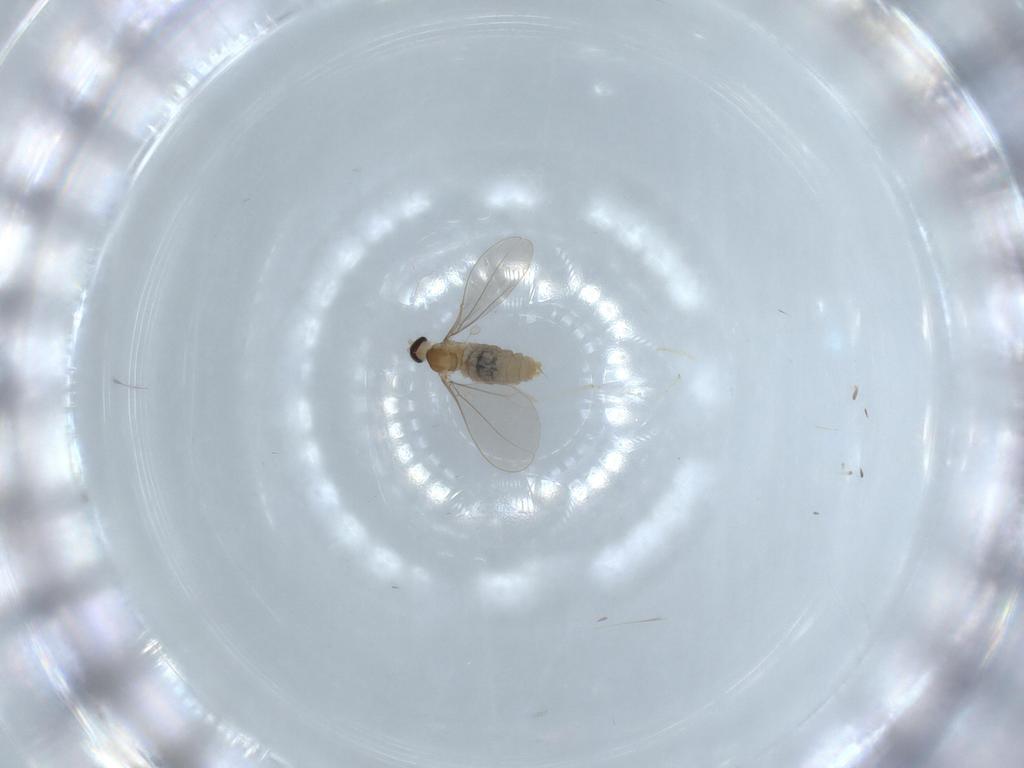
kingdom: Animalia
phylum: Arthropoda
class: Insecta
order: Diptera
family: Cecidomyiidae
